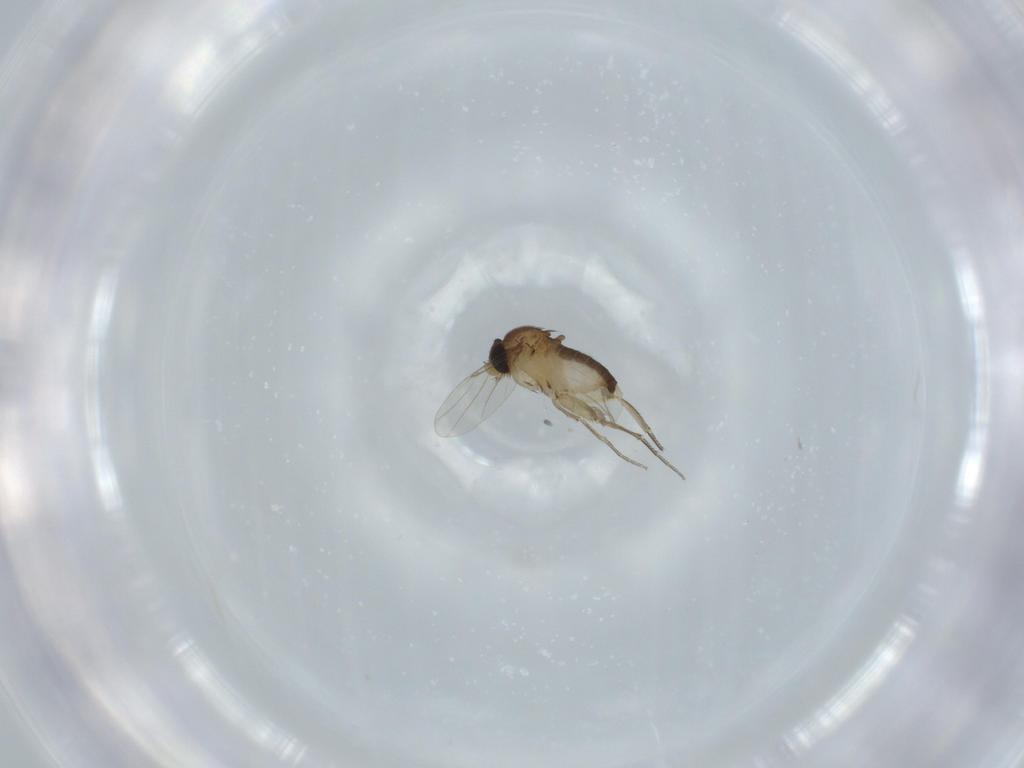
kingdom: Animalia
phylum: Arthropoda
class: Insecta
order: Diptera
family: Phoridae
